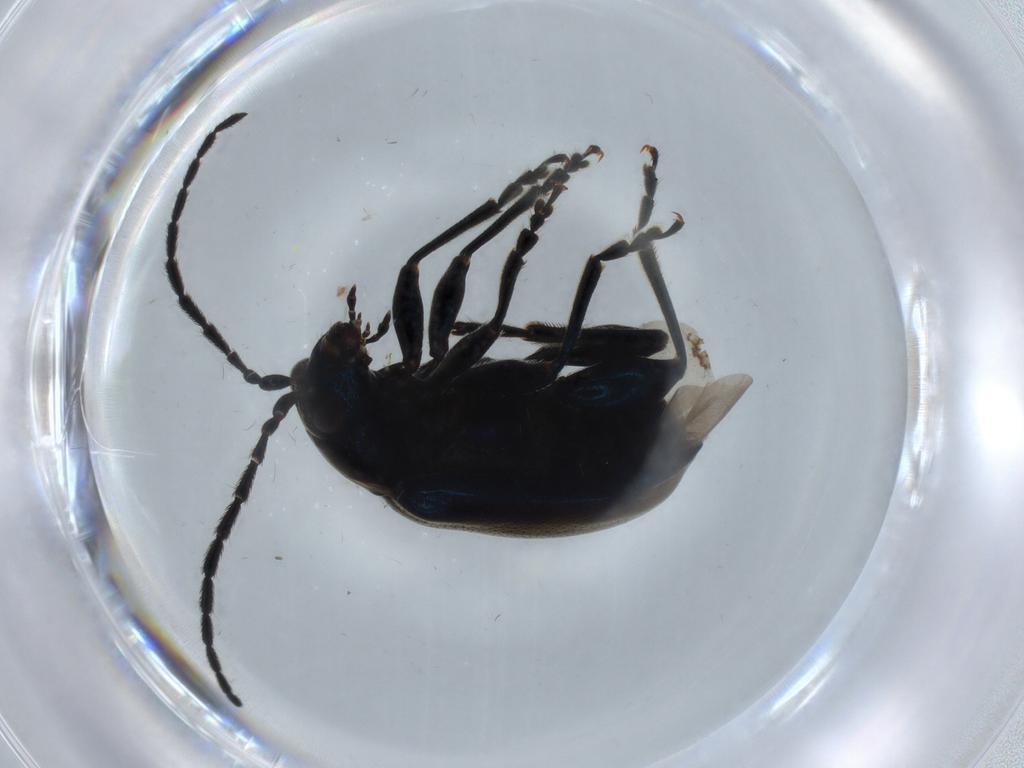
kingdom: Animalia
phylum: Arthropoda
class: Insecta
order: Coleoptera
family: Chrysomelidae
